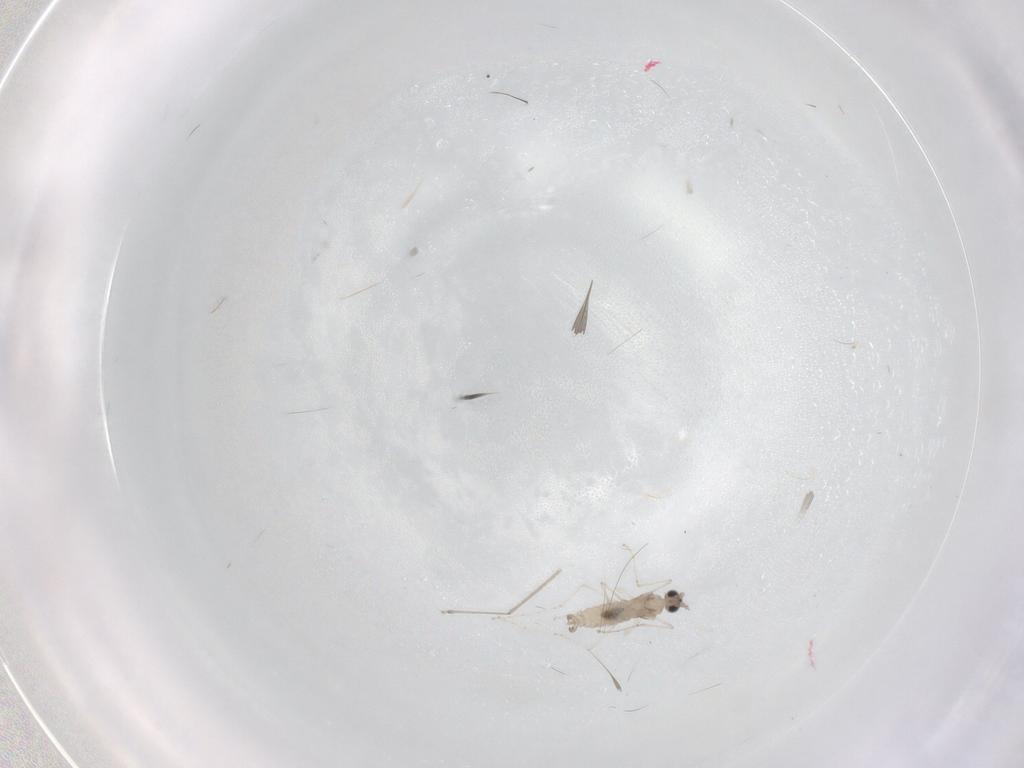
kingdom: Animalia
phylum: Arthropoda
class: Insecta
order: Diptera
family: Cecidomyiidae
